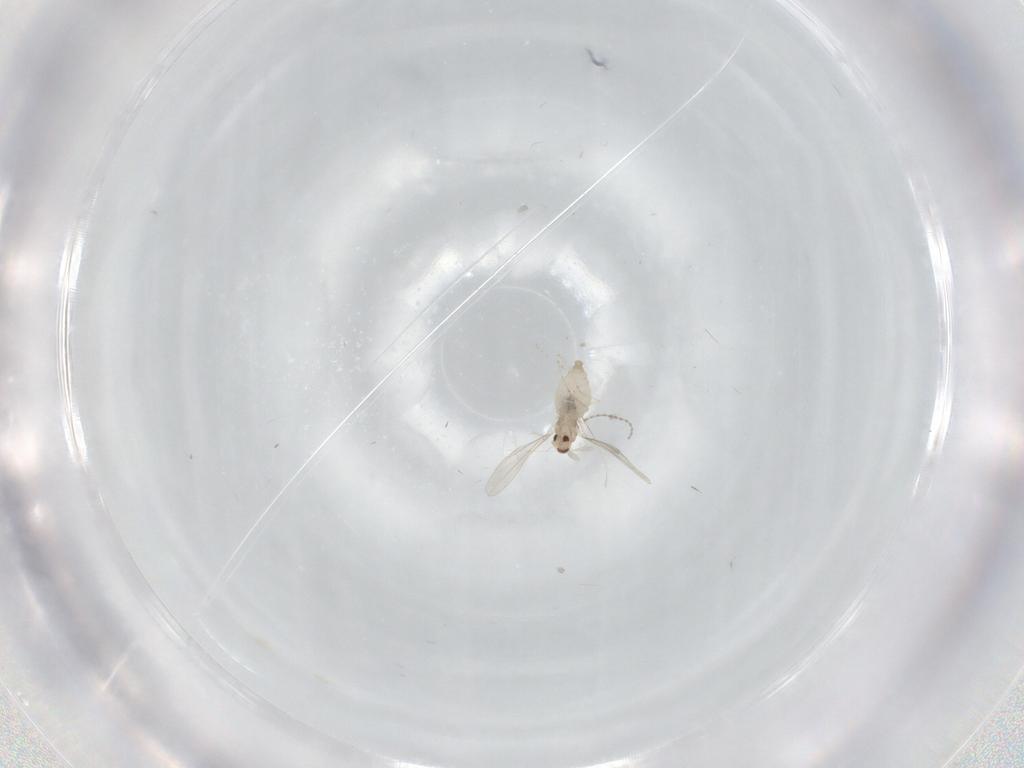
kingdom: Animalia
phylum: Arthropoda
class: Insecta
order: Diptera
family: Cecidomyiidae
